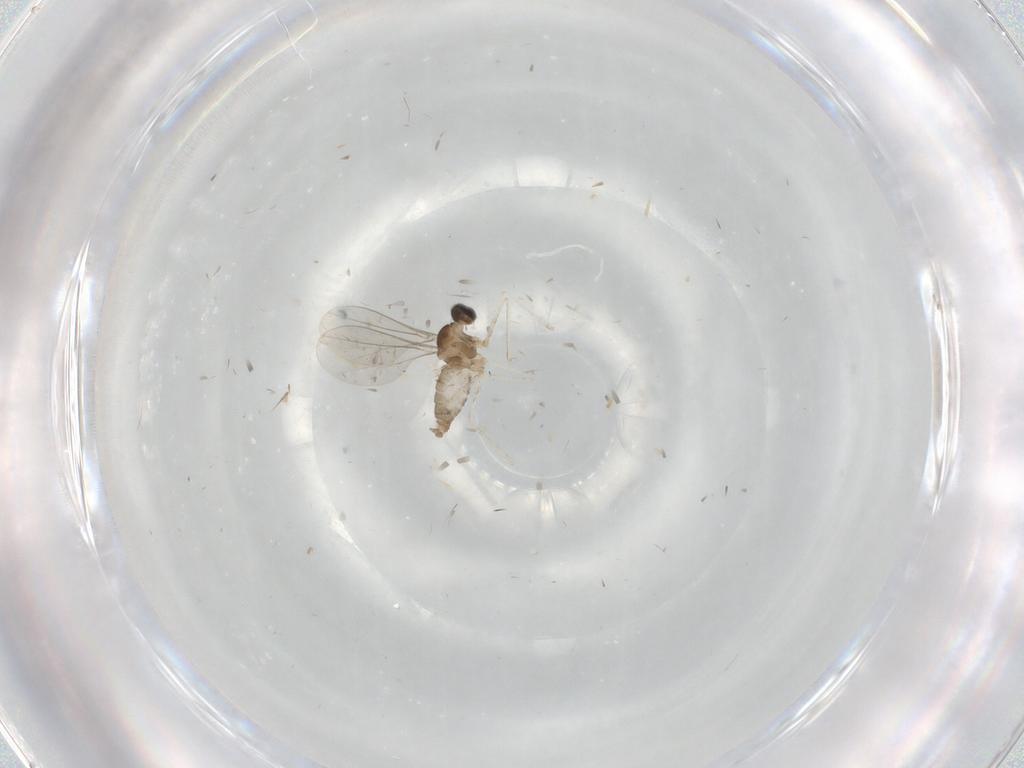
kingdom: Animalia
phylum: Arthropoda
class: Insecta
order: Diptera
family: Cecidomyiidae
